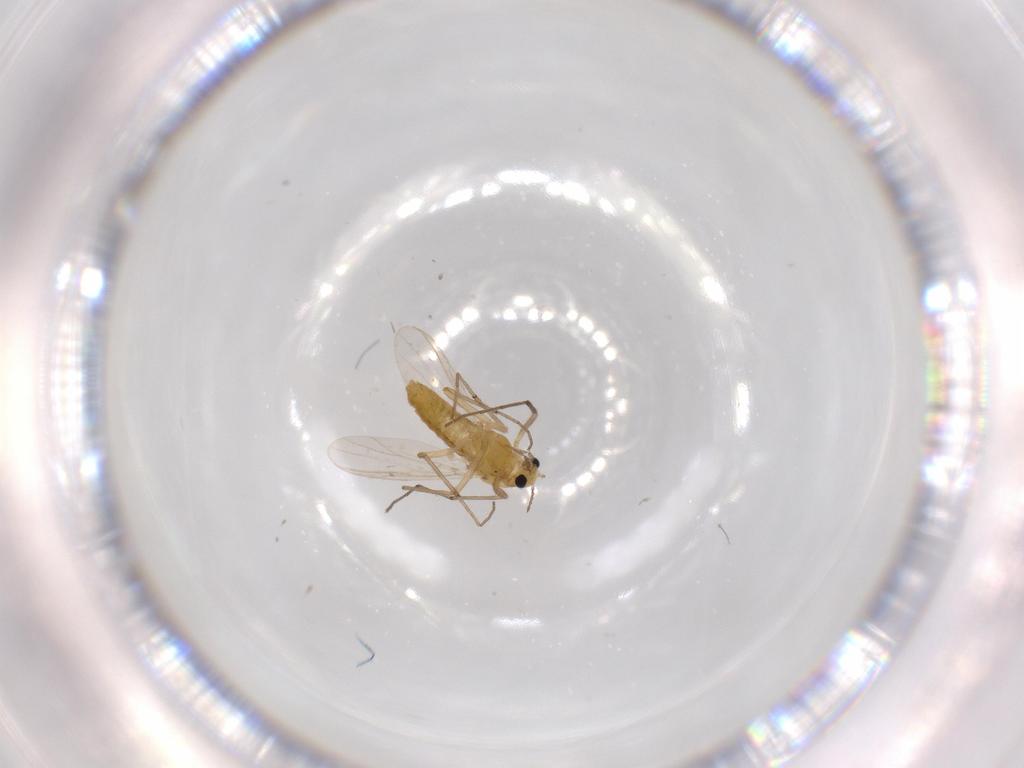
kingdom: Animalia
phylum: Arthropoda
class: Insecta
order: Diptera
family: Chironomidae
